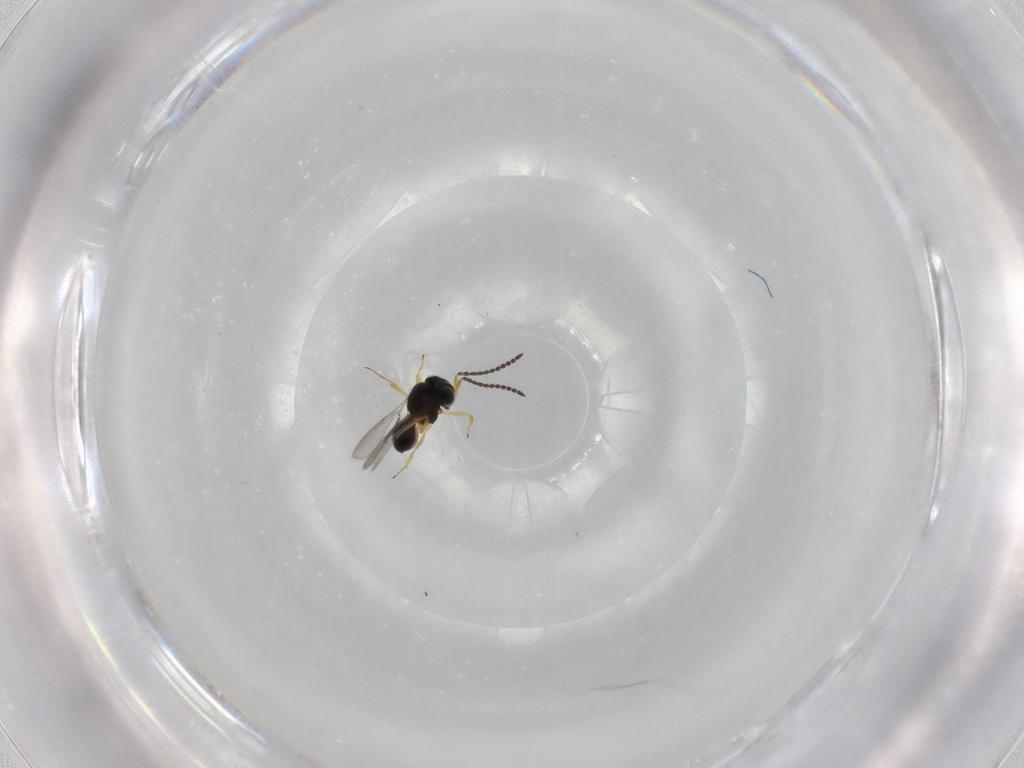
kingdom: Animalia
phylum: Arthropoda
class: Insecta
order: Hymenoptera
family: Scelionidae
